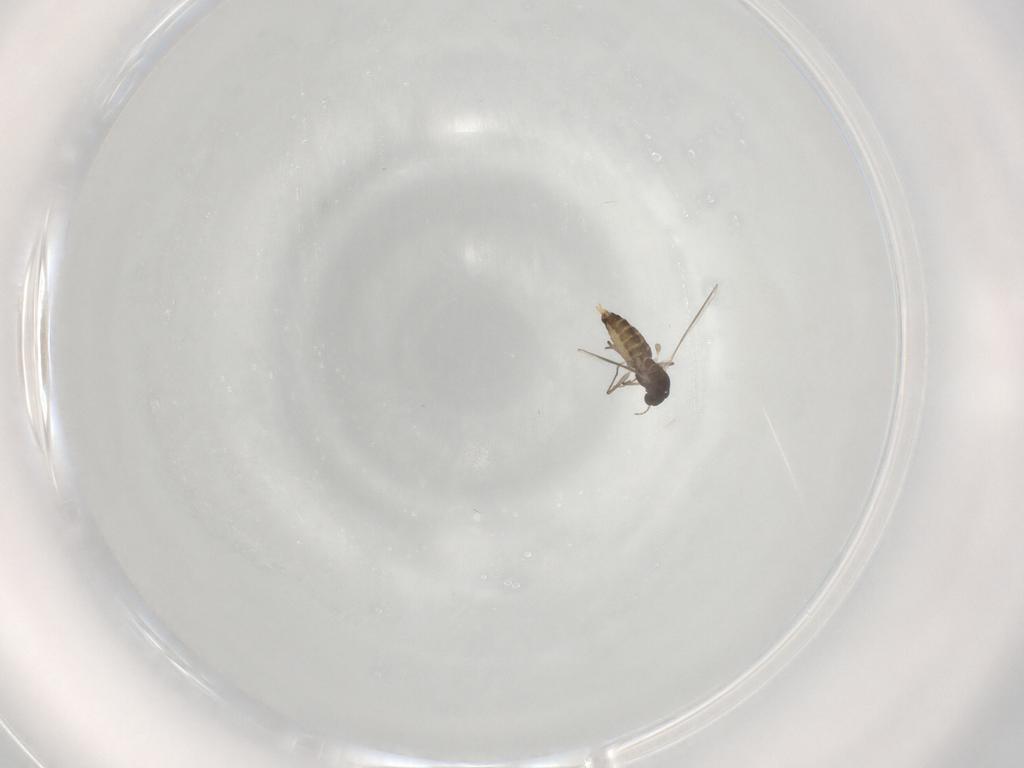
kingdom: Animalia
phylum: Arthropoda
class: Insecta
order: Diptera
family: Chironomidae
